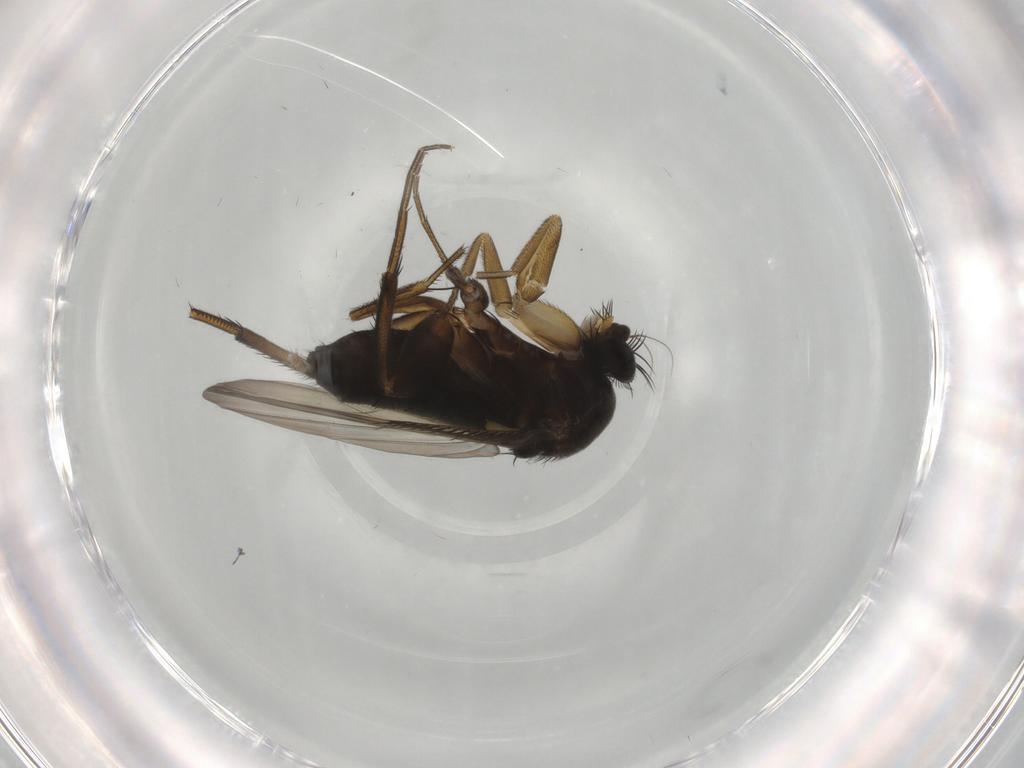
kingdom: Animalia
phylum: Arthropoda
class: Insecta
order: Diptera
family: Phoridae
